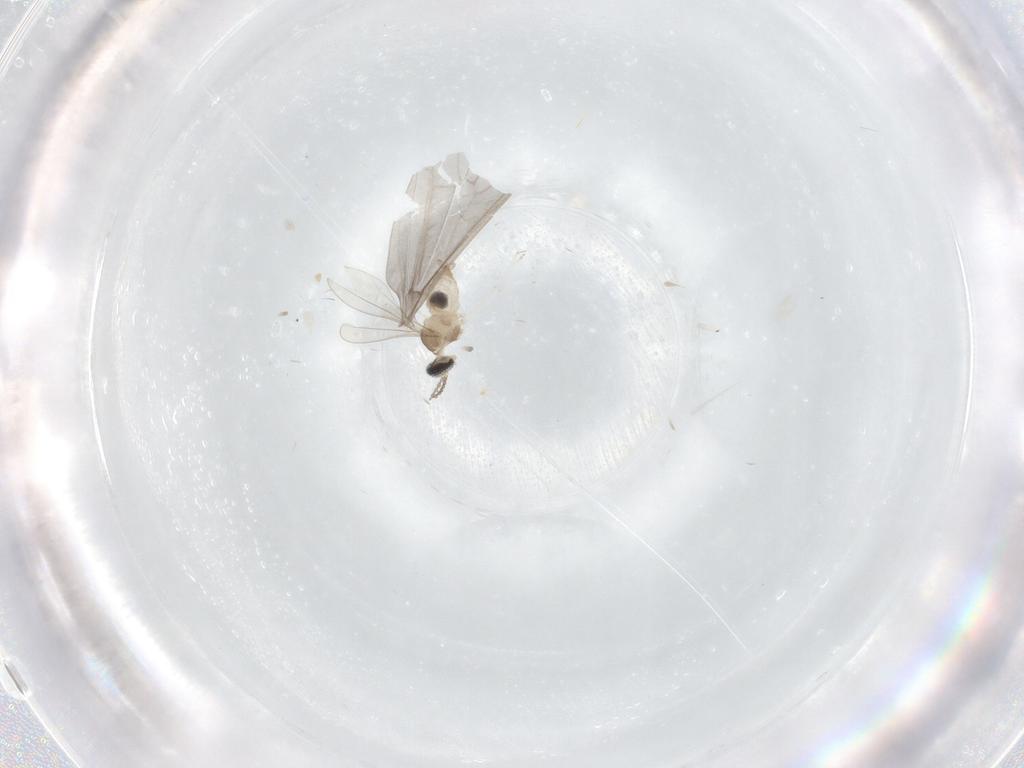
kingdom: Animalia
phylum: Arthropoda
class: Insecta
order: Diptera
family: Cecidomyiidae
